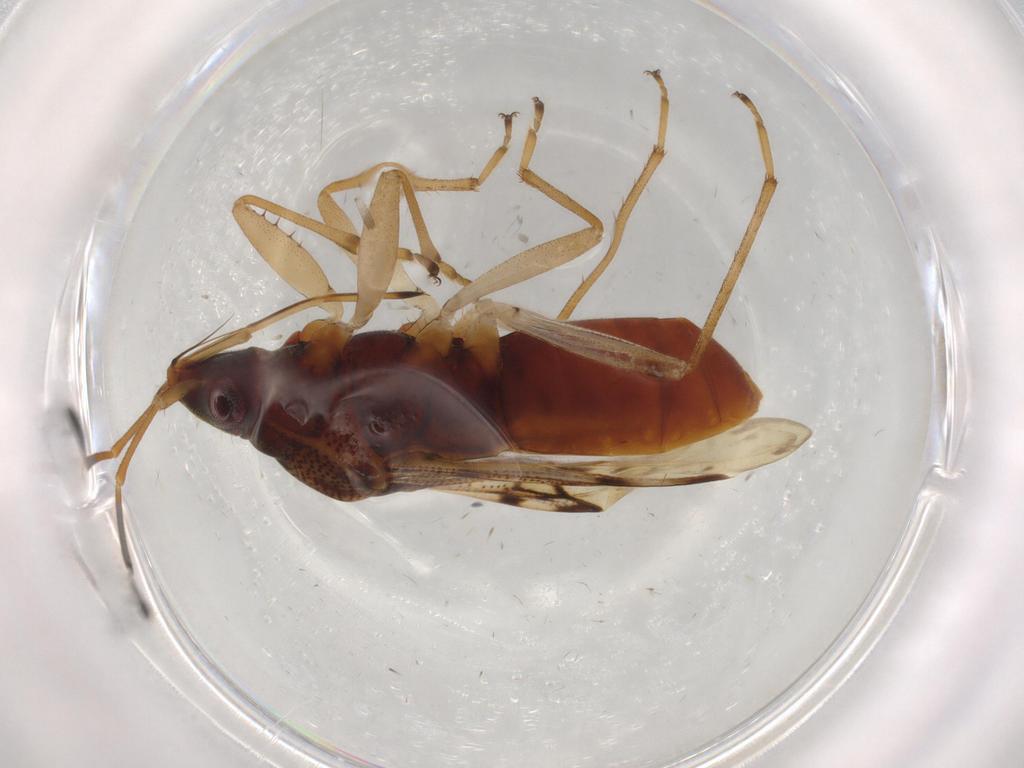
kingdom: Animalia
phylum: Arthropoda
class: Insecta
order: Hemiptera
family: Rhyparochromidae
